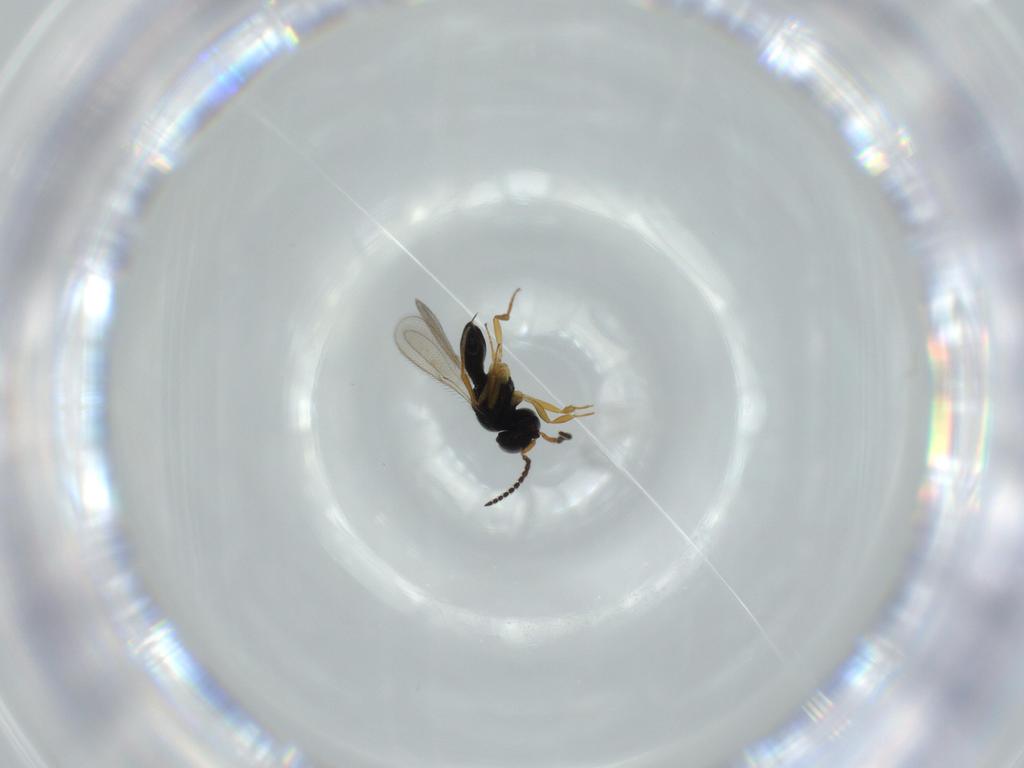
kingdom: Animalia
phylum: Arthropoda
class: Insecta
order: Hymenoptera
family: Scelionidae
